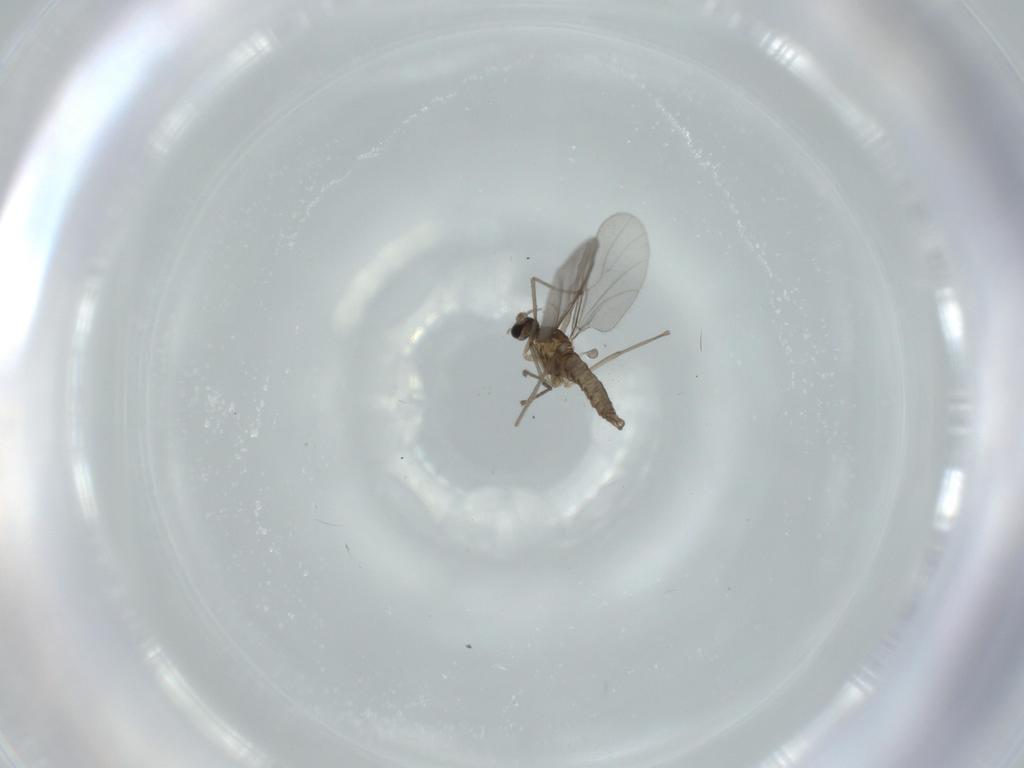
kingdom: Animalia
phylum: Arthropoda
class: Insecta
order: Diptera
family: Cecidomyiidae
